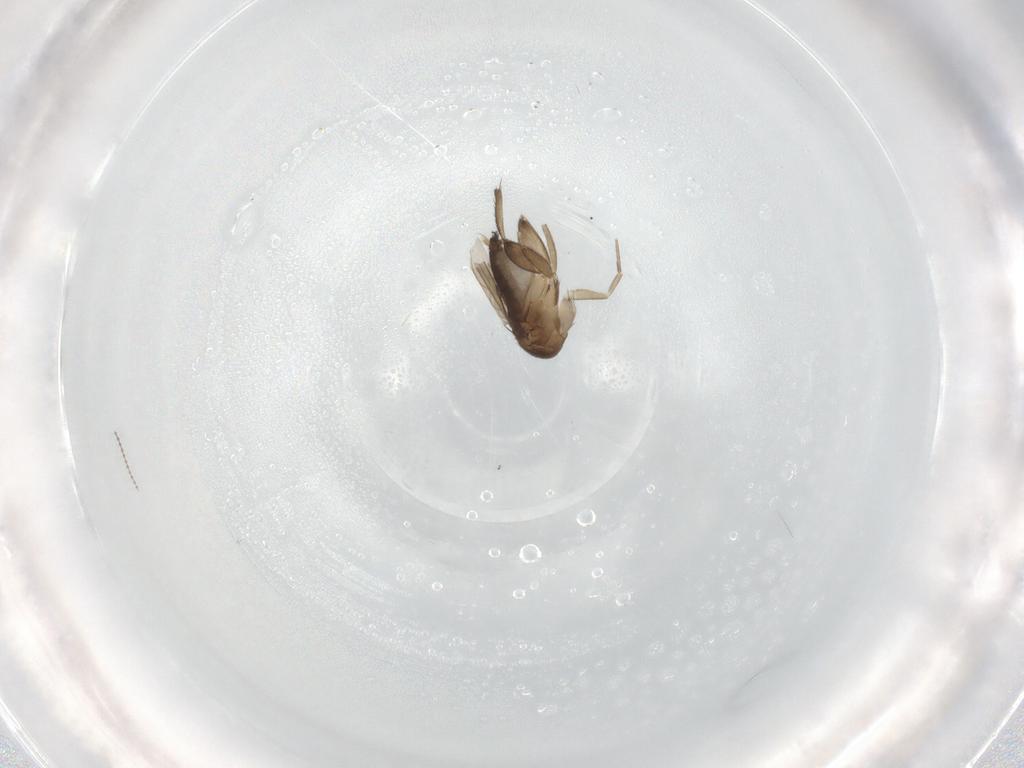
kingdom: Animalia
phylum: Arthropoda
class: Insecta
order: Diptera
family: Phoridae
